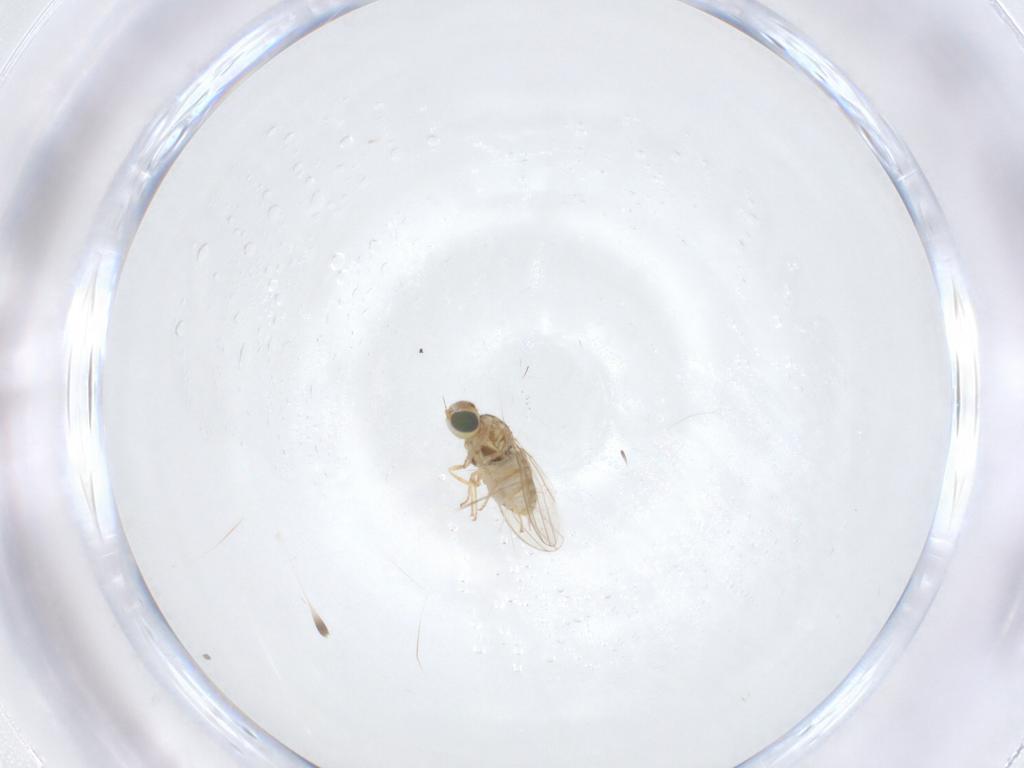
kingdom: Animalia
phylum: Arthropoda
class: Insecta
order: Diptera
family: Chyromyidae
